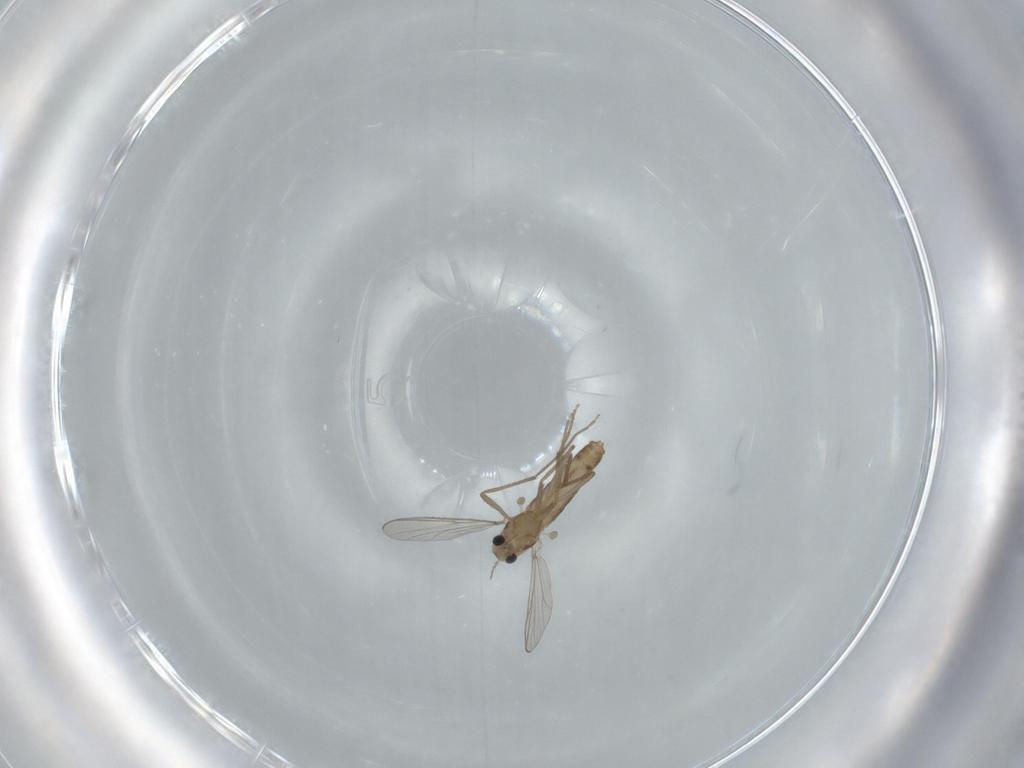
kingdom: Animalia
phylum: Arthropoda
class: Insecta
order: Diptera
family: Chironomidae
